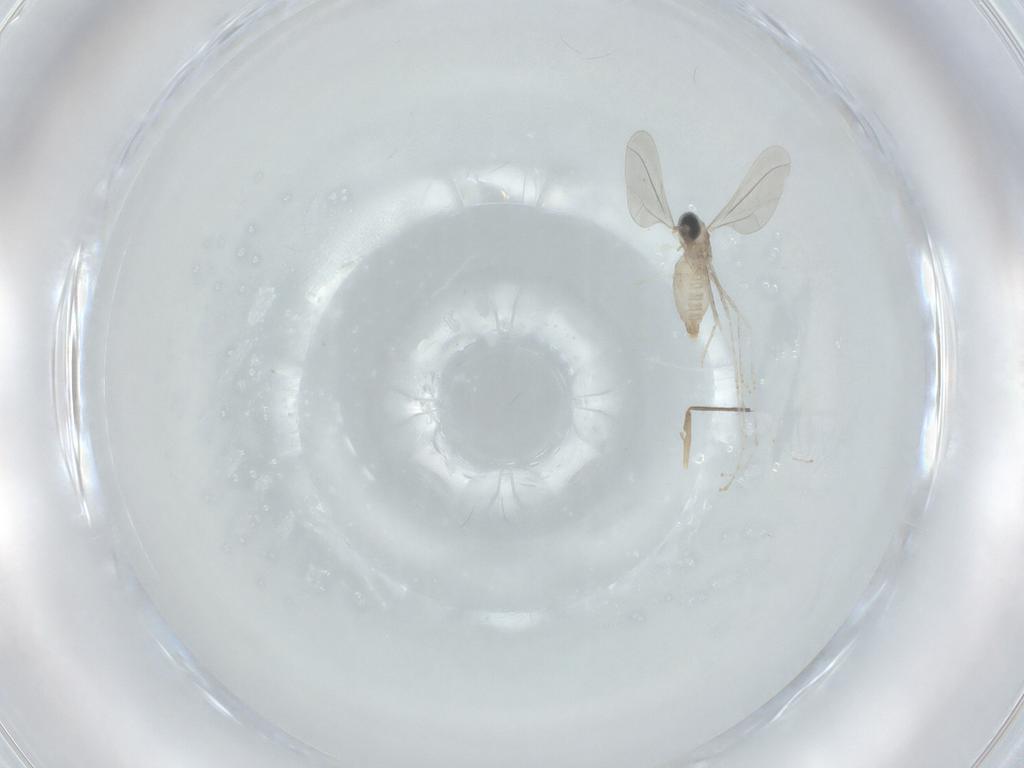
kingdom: Animalia
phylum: Arthropoda
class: Insecta
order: Diptera
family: Cecidomyiidae
